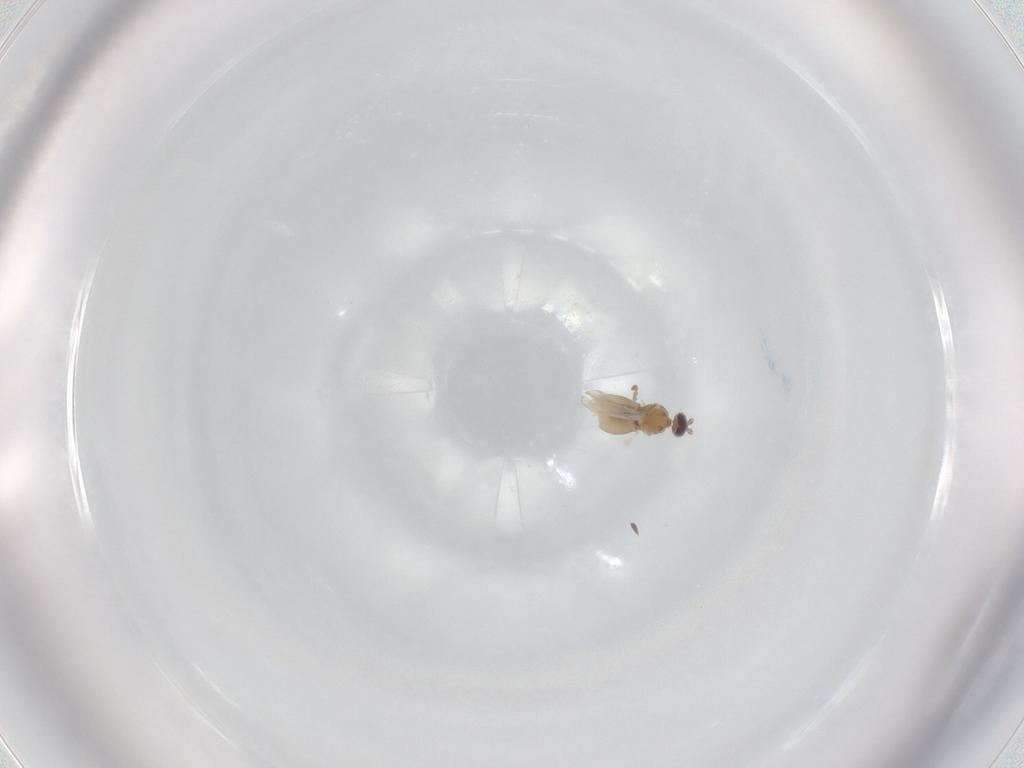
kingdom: Animalia
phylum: Arthropoda
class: Insecta
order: Diptera
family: Cecidomyiidae
